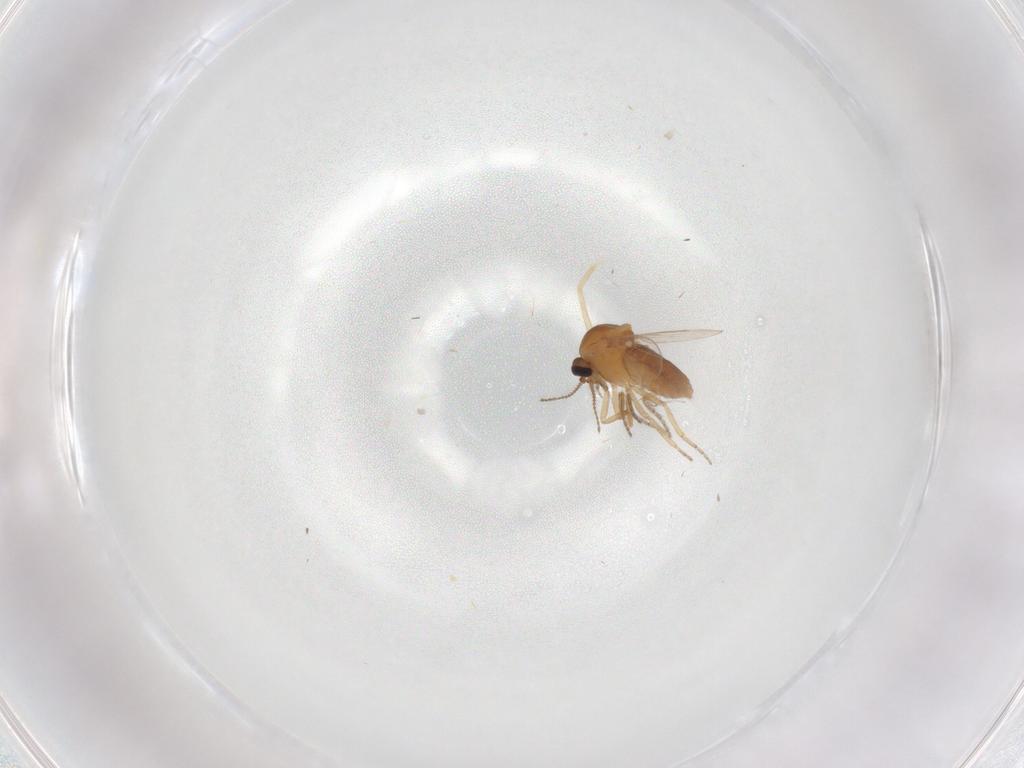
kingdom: Animalia
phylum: Arthropoda
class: Insecta
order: Diptera
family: Ceratopogonidae
